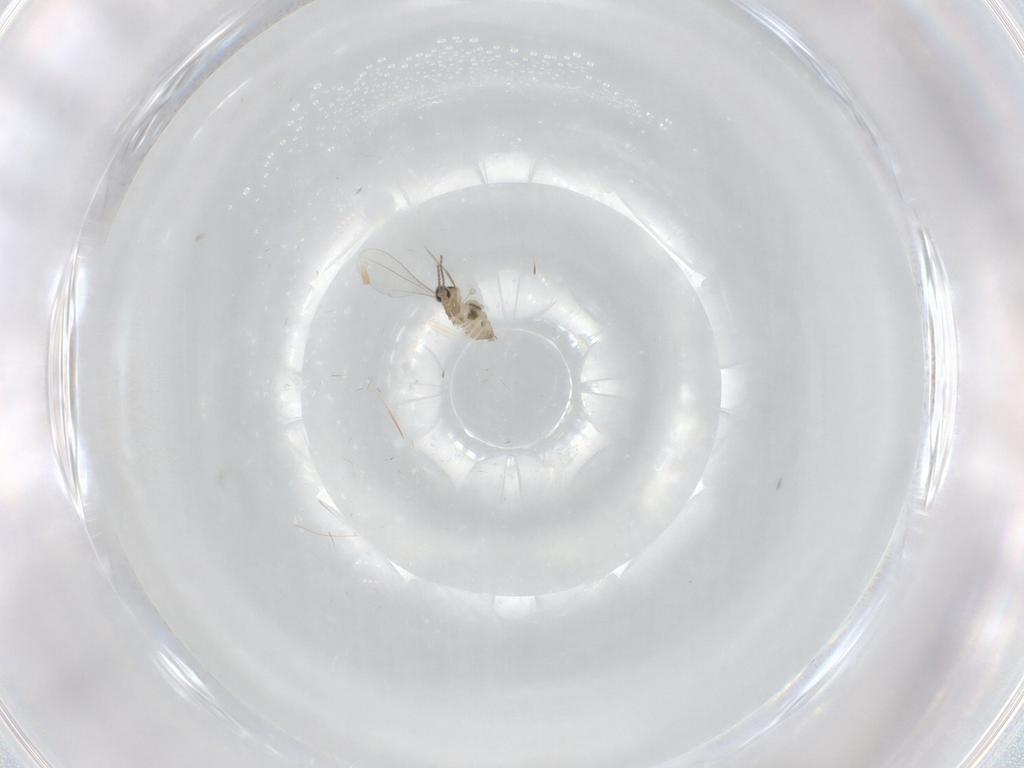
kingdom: Animalia
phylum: Arthropoda
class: Insecta
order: Diptera
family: Cecidomyiidae
